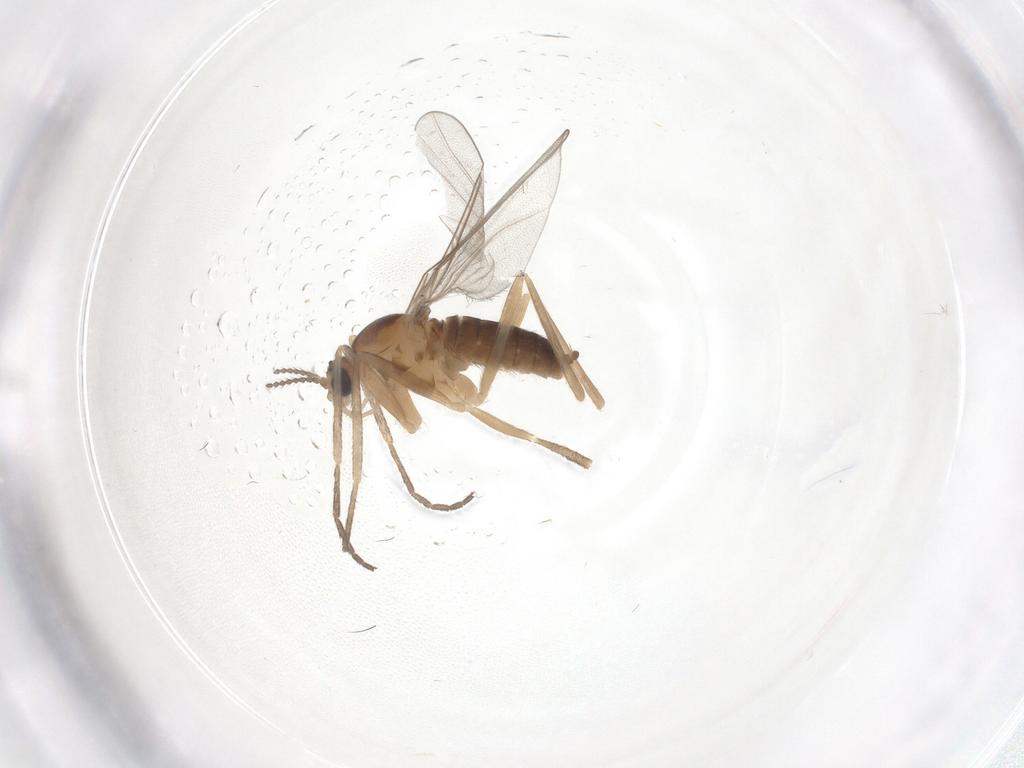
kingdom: Animalia
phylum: Arthropoda
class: Insecta
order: Diptera
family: Cecidomyiidae
